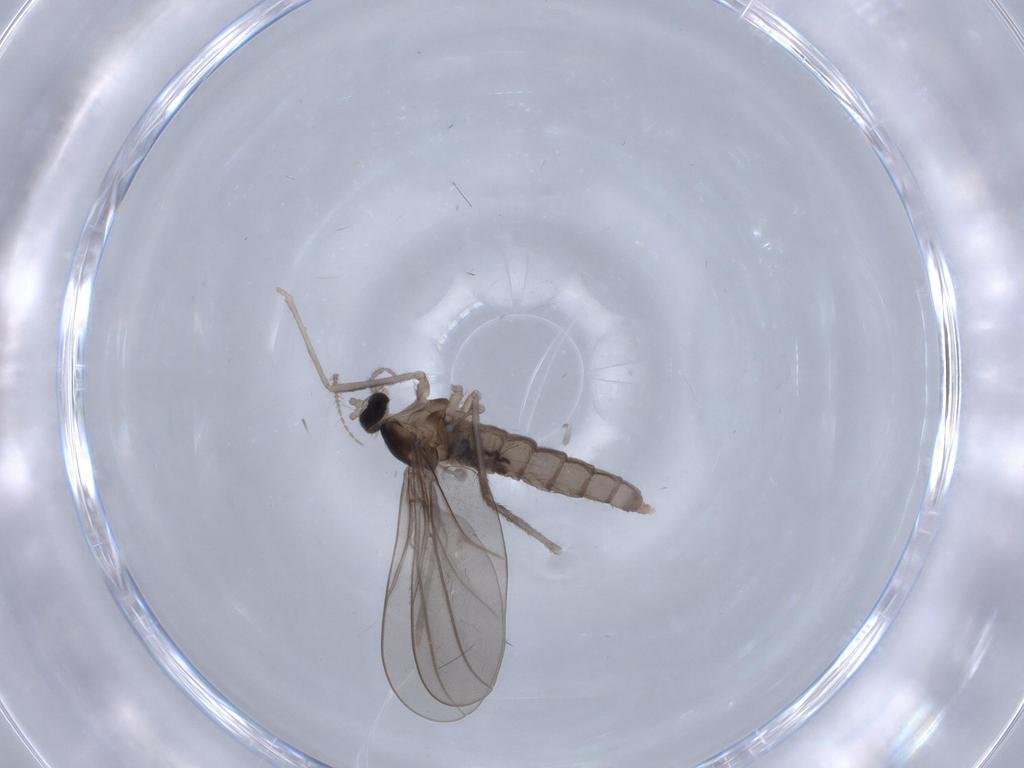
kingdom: Animalia
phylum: Arthropoda
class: Insecta
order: Diptera
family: Cecidomyiidae
